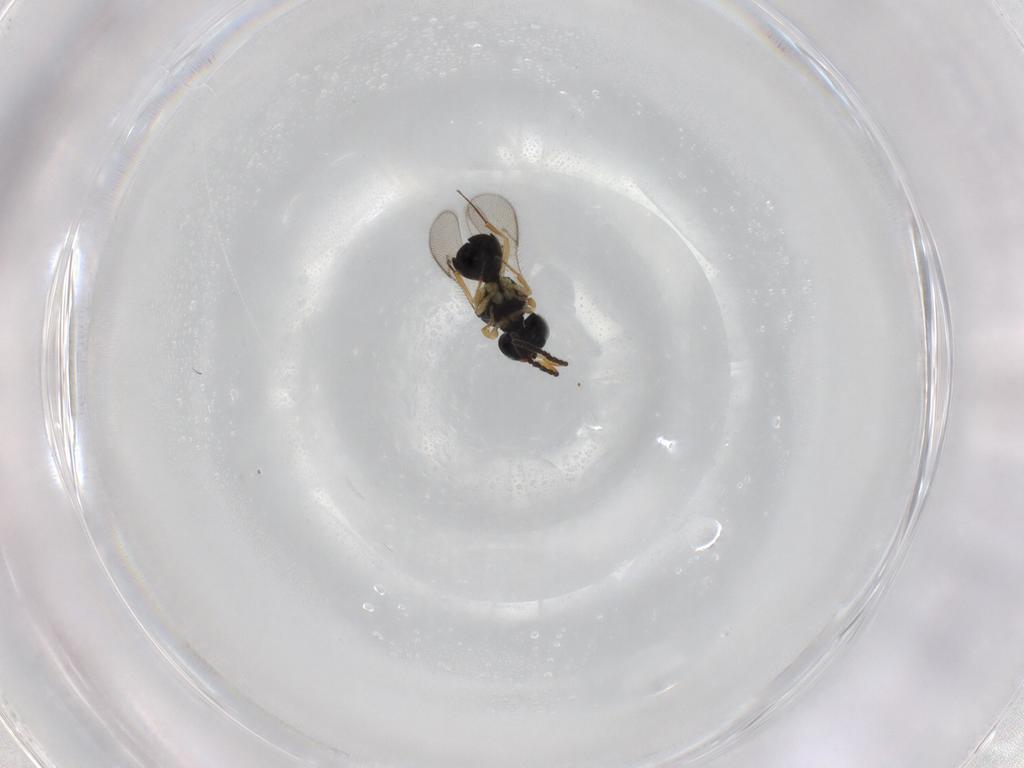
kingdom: Animalia
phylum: Arthropoda
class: Insecta
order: Hymenoptera
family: Scelionidae
